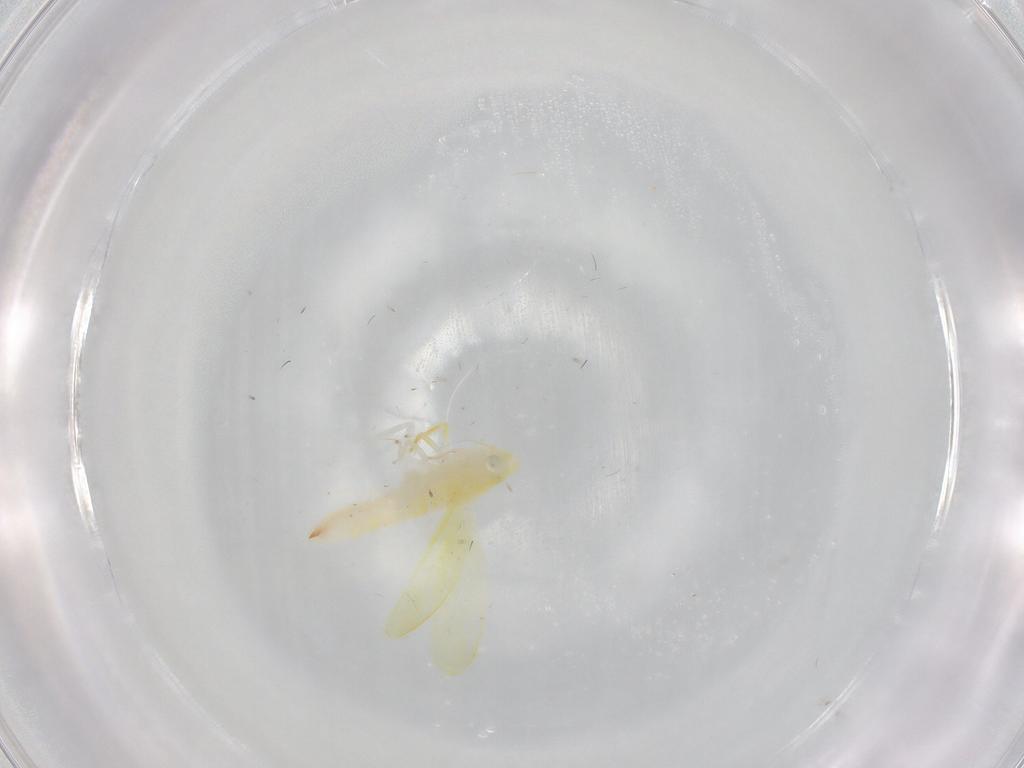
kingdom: Animalia
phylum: Arthropoda
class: Insecta
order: Hemiptera
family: Cicadellidae
